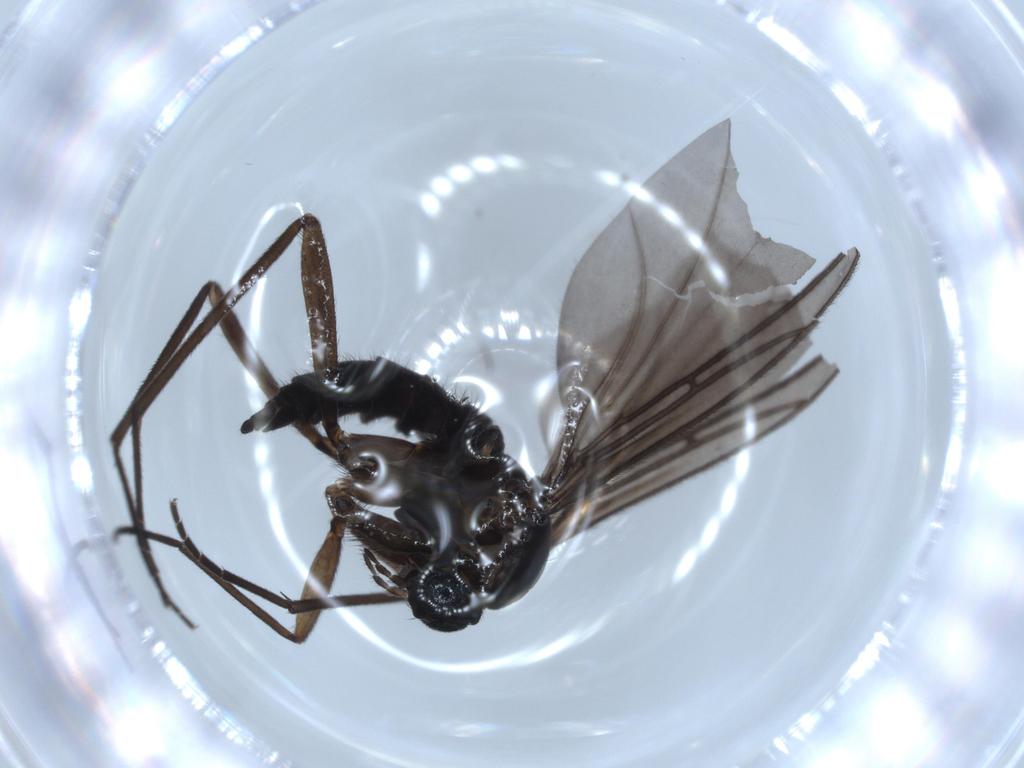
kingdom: Animalia
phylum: Arthropoda
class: Insecta
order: Diptera
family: Sciaridae
